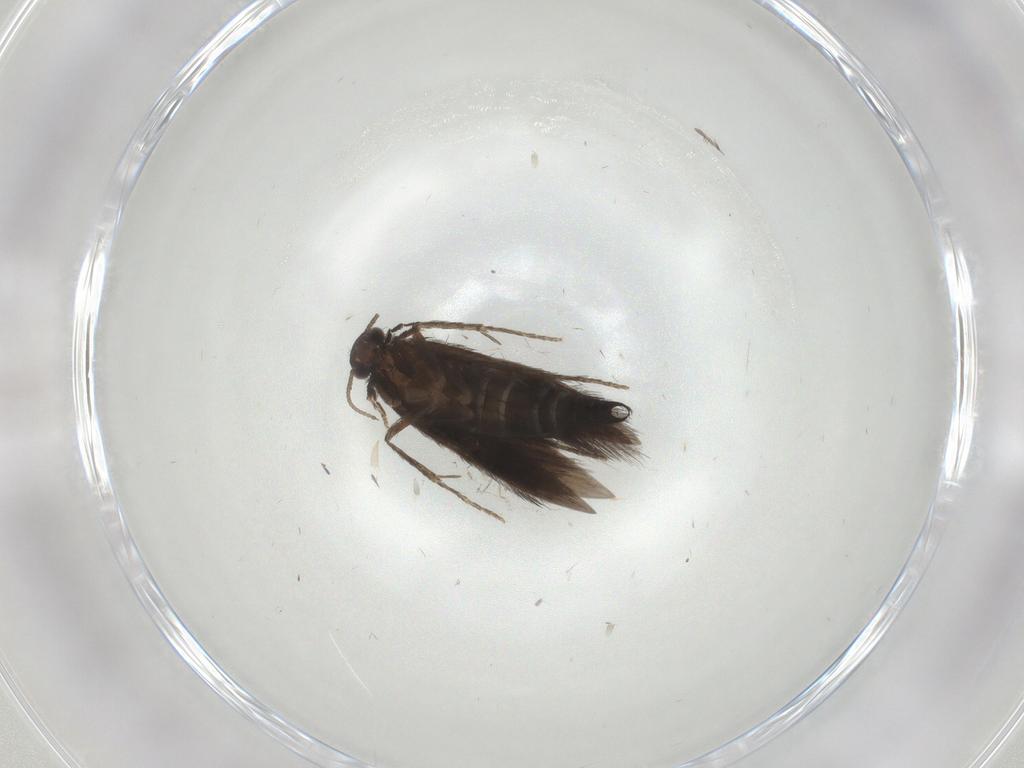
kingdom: Animalia
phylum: Arthropoda
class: Insecta
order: Trichoptera
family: Hydroptilidae
